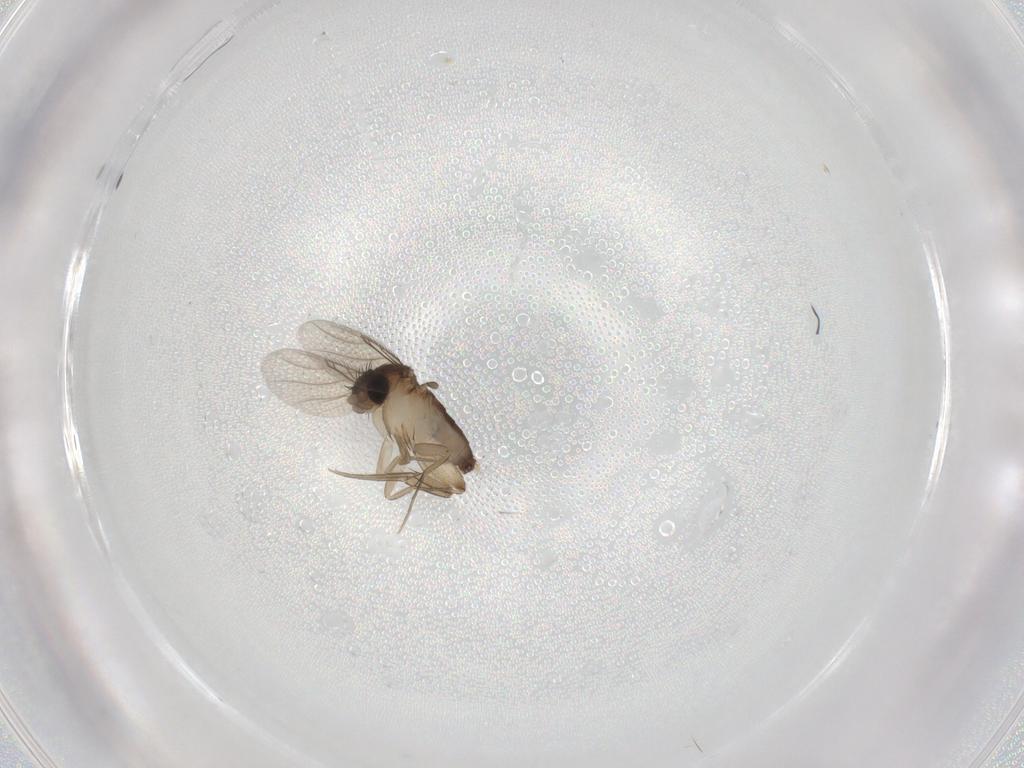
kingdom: Animalia
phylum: Arthropoda
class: Insecta
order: Diptera
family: Phoridae
